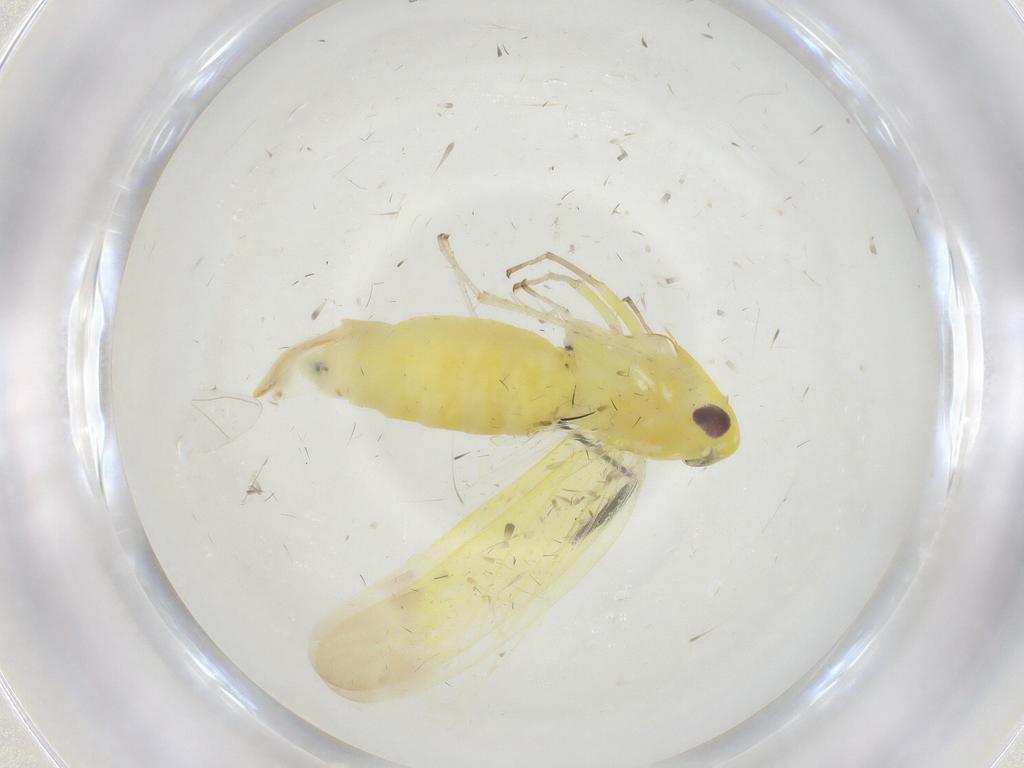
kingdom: Animalia
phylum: Arthropoda
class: Insecta
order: Hemiptera
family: Cicadellidae
